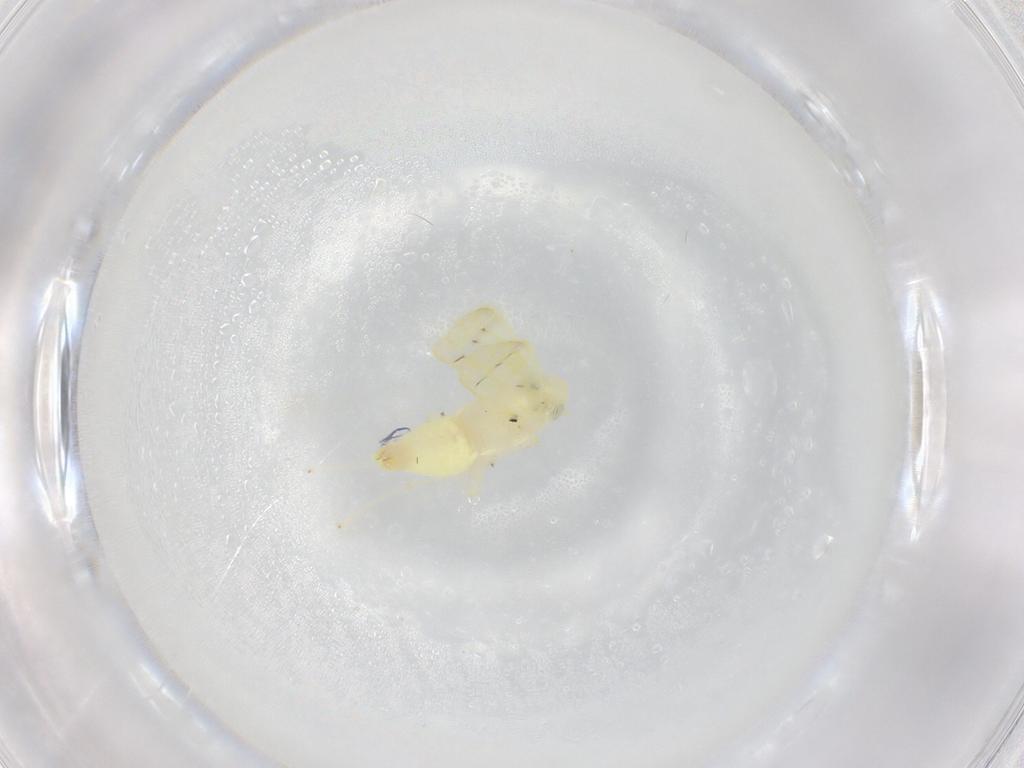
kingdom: Animalia
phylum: Arthropoda
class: Insecta
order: Hemiptera
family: Cicadellidae
